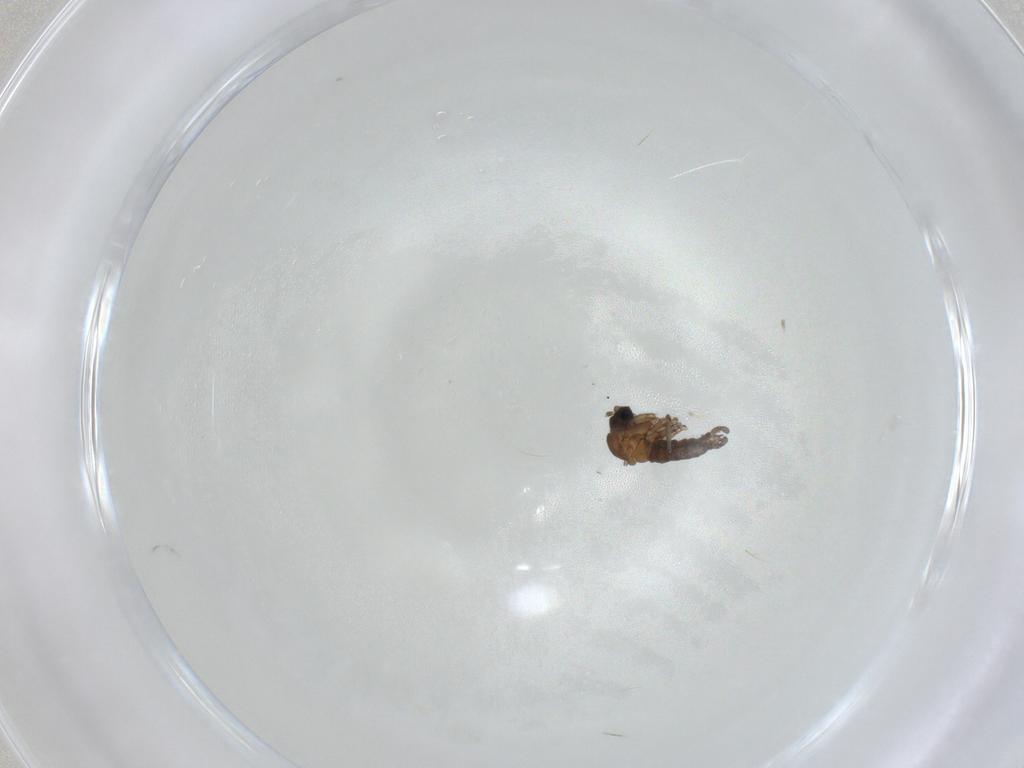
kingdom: Animalia
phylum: Arthropoda
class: Insecta
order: Diptera
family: Sciaridae
